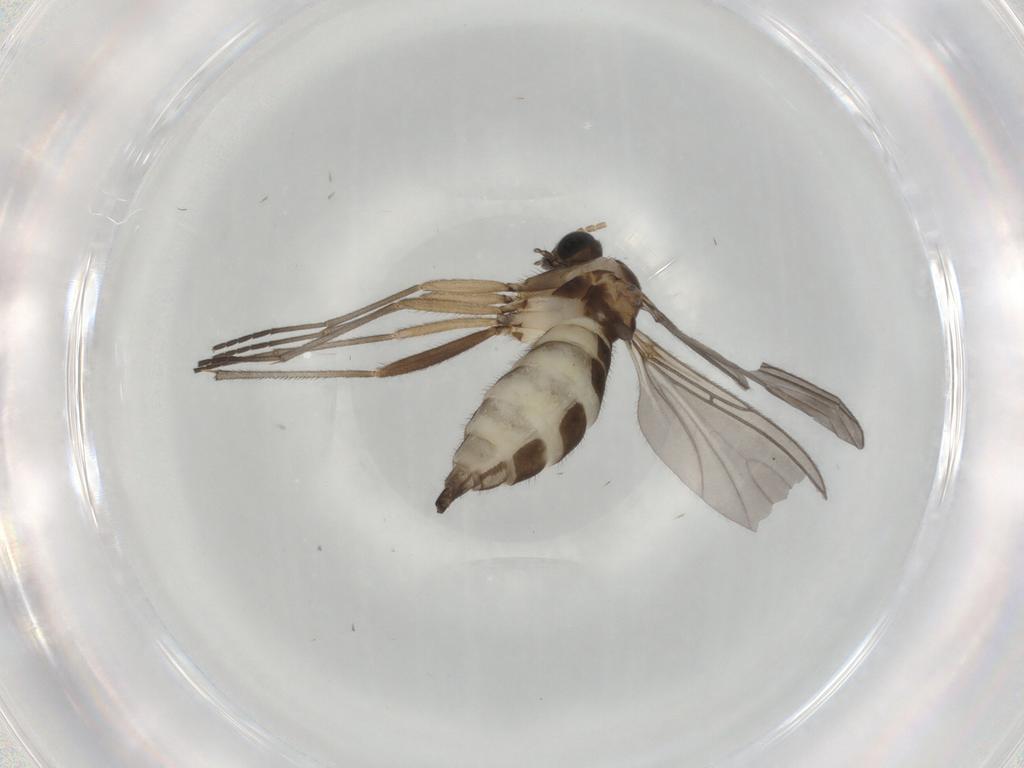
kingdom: Animalia
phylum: Arthropoda
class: Insecta
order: Diptera
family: Sciaridae
